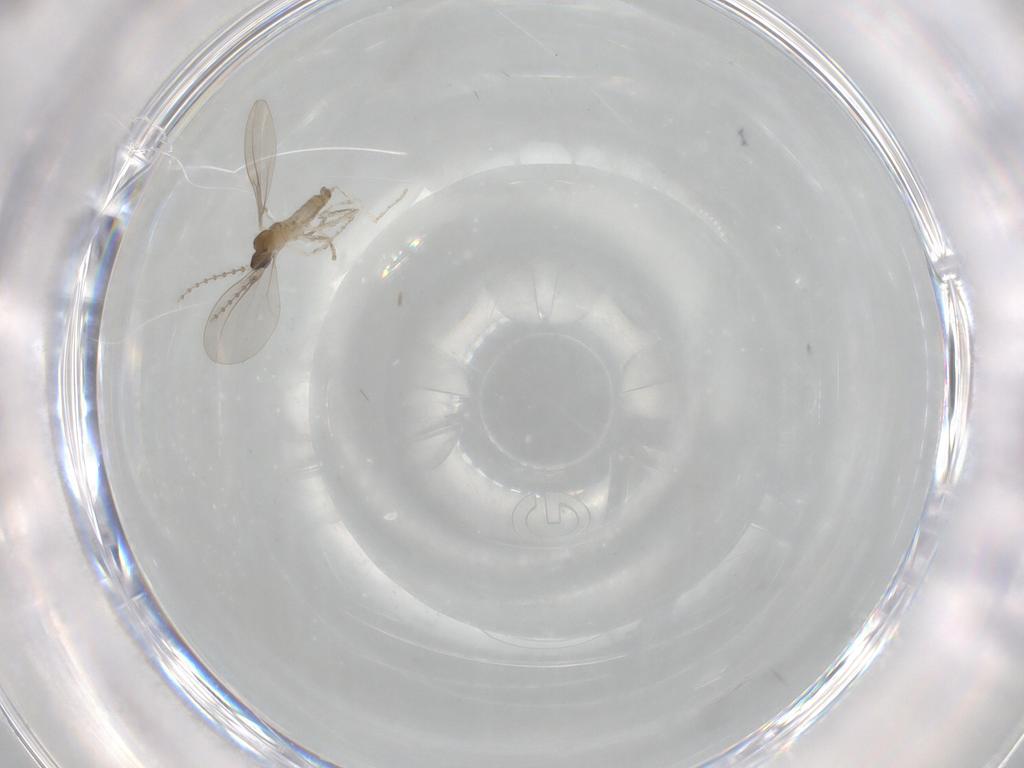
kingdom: Animalia
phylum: Arthropoda
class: Insecta
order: Diptera
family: Cecidomyiidae
